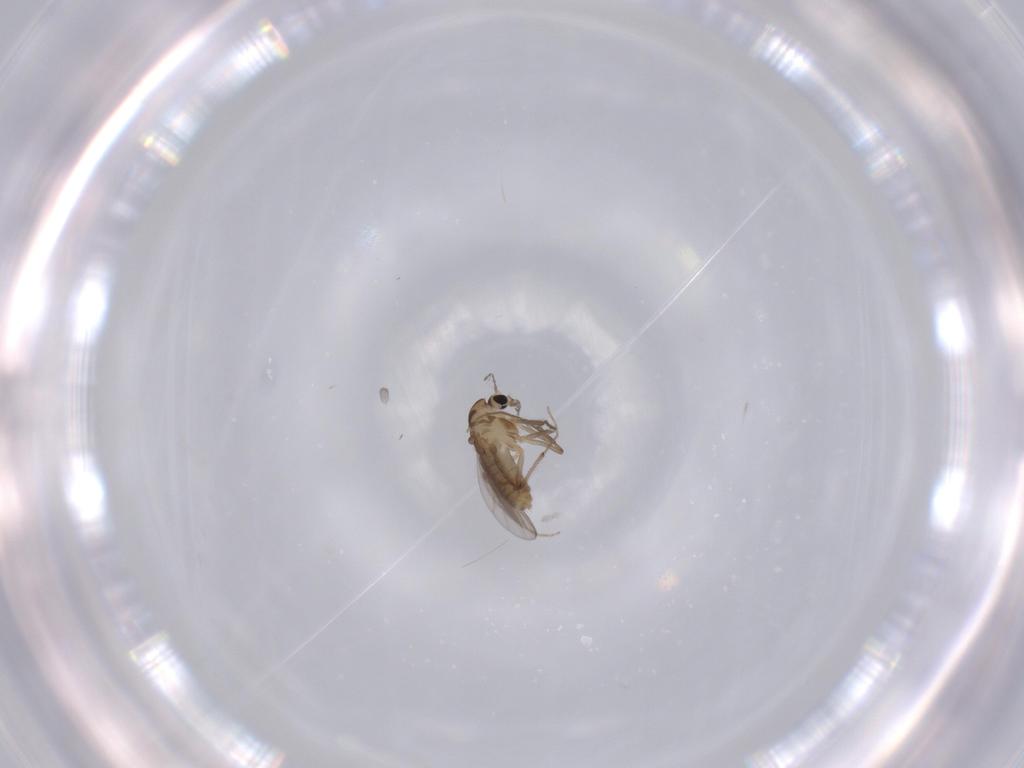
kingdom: Animalia
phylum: Arthropoda
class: Insecta
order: Diptera
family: Chironomidae
